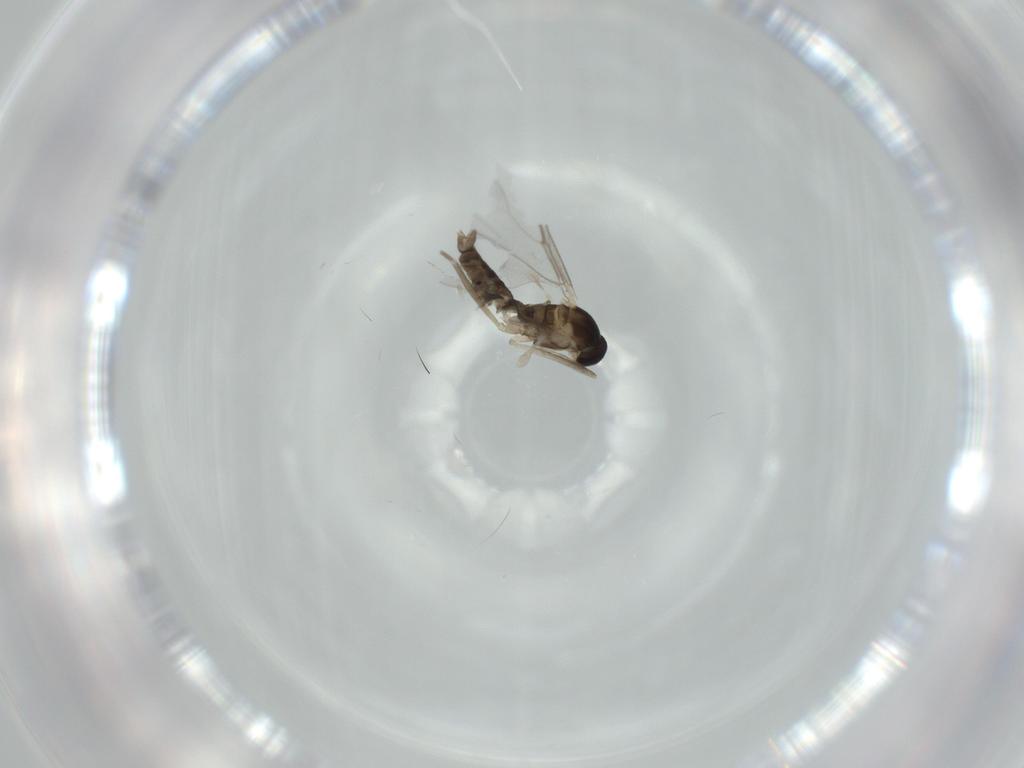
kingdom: Animalia
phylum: Arthropoda
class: Insecta
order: Diptera
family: Cecidomyiidae
